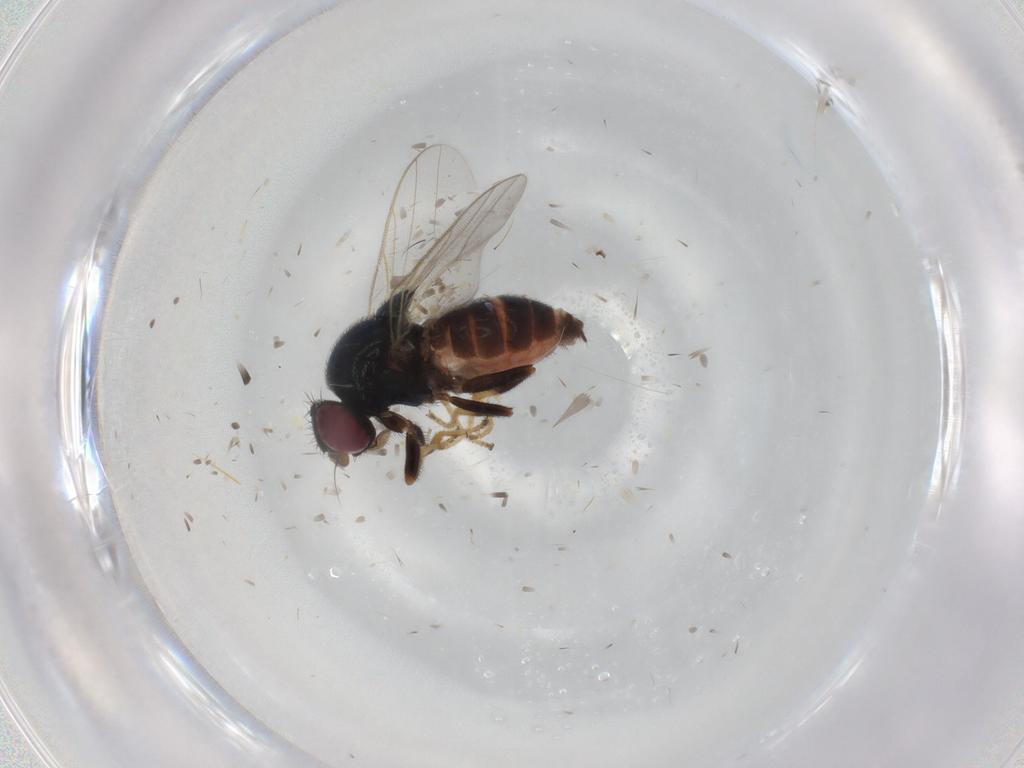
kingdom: Animalia
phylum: Arthropoda
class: Insecta
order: Diptera
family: Chloropidae
